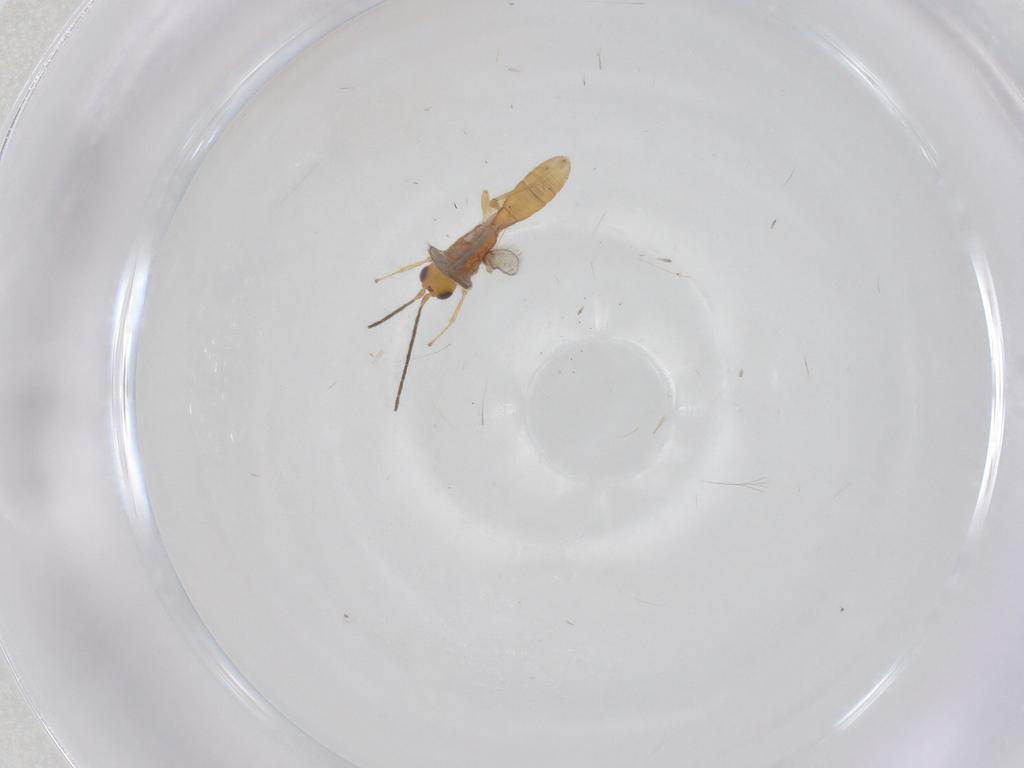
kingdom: Animalia
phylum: Arthropoda
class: Insecta
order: Hymenoptera
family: Braconidae
